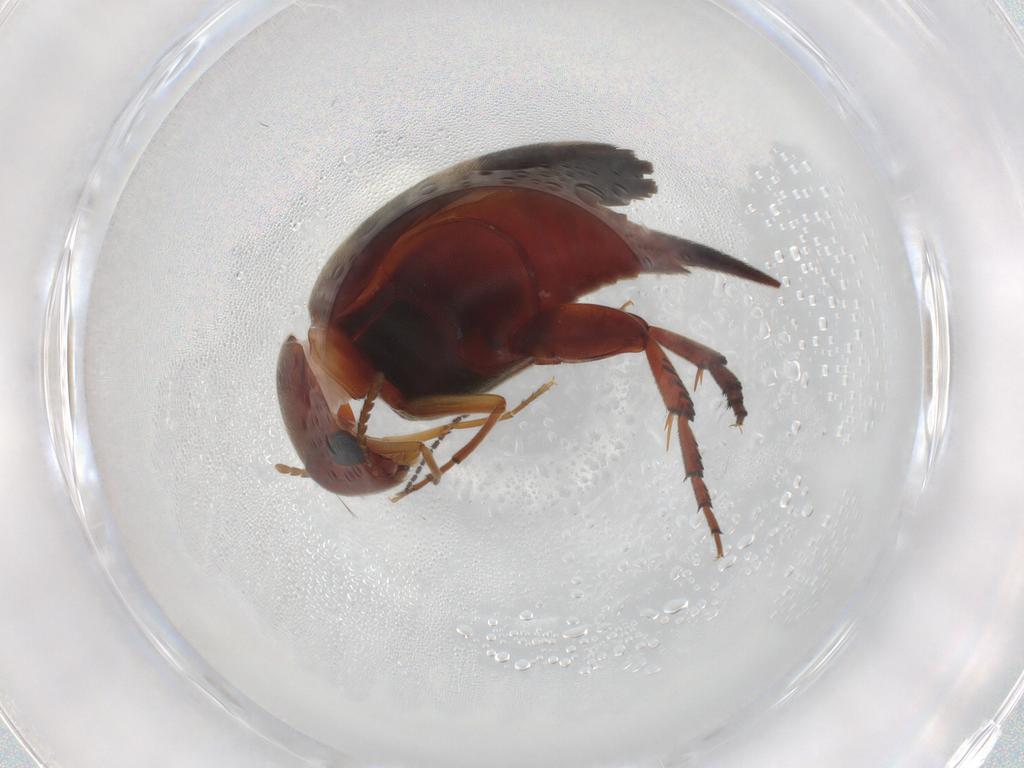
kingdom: Animalia
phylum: Arthropoda
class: Insecta
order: Coleoptera
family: Mordellidae
